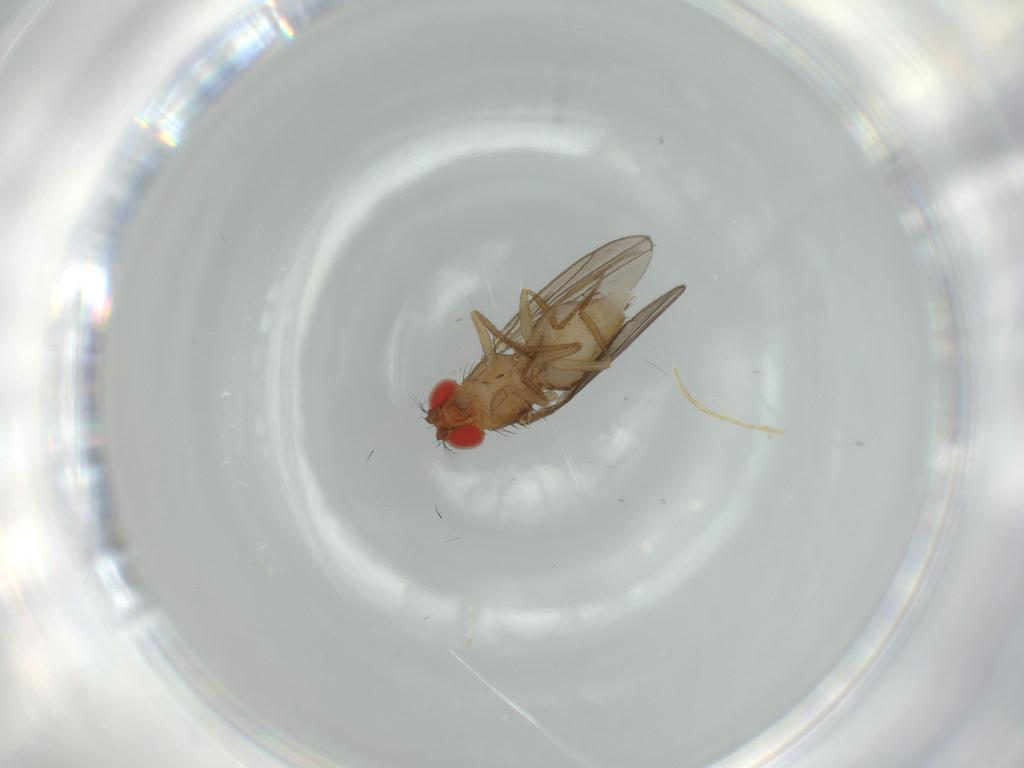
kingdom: Animalia
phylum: Arthropoda
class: Insecta
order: Diptera
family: Drosophilidae
